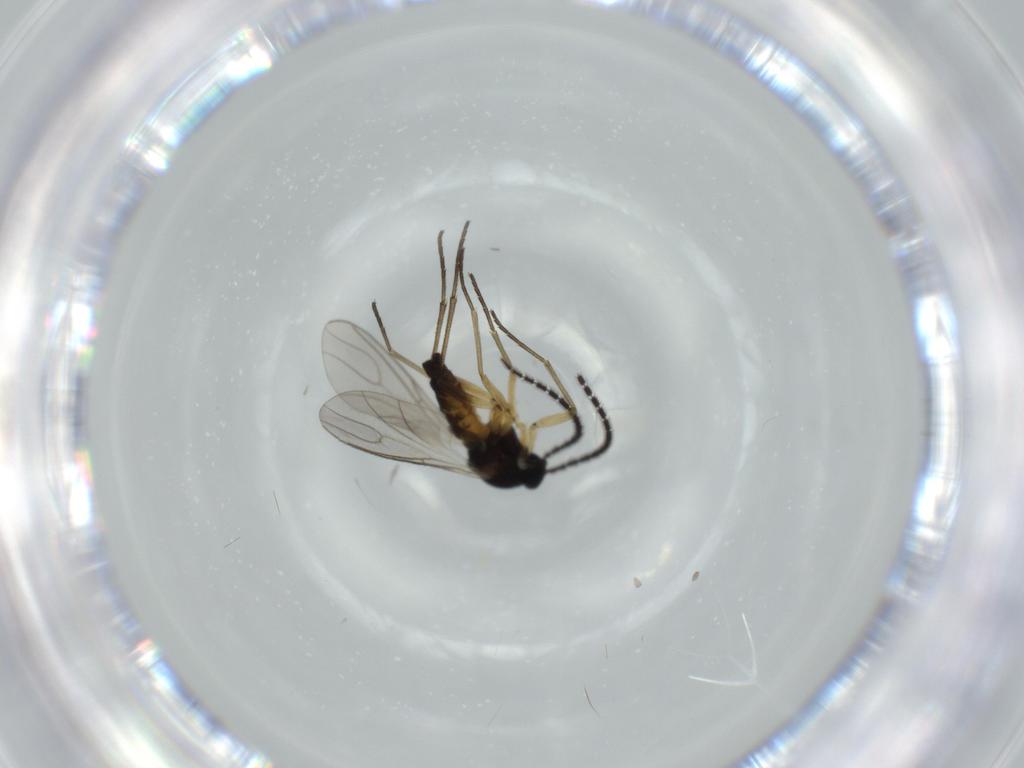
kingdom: Animalia
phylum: Arthropoda
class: Insecta
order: Diptera
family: Sciaridae
